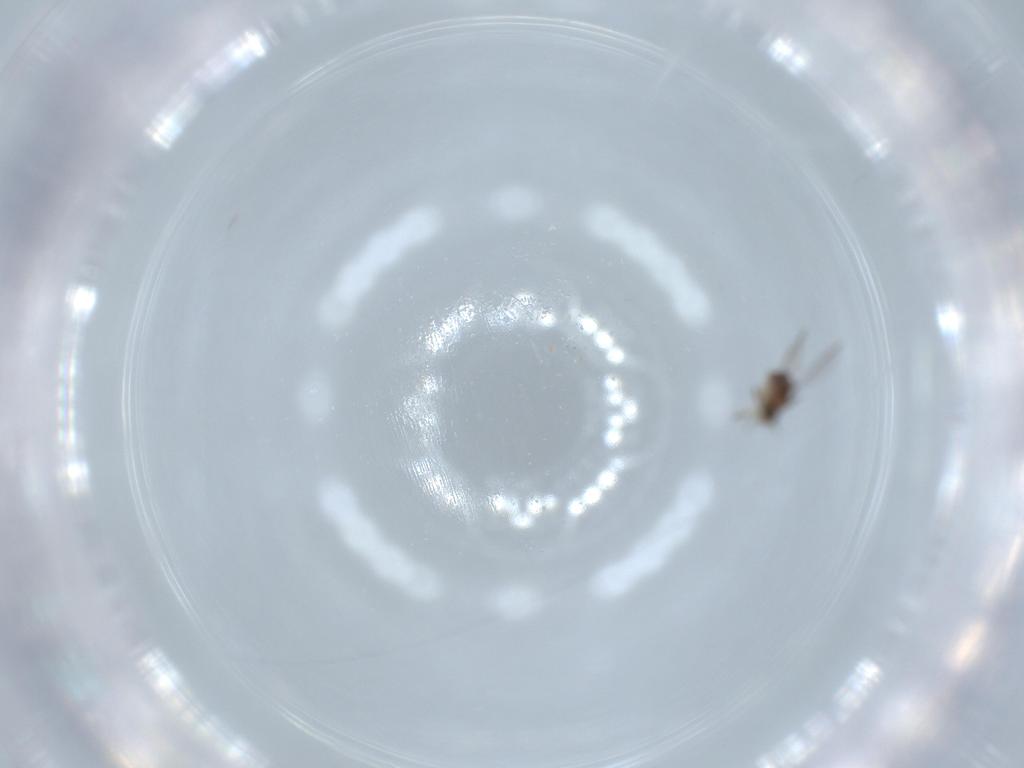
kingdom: Animalia
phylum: Arthropoda
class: Insecta
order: Diptera
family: Chironomidae
